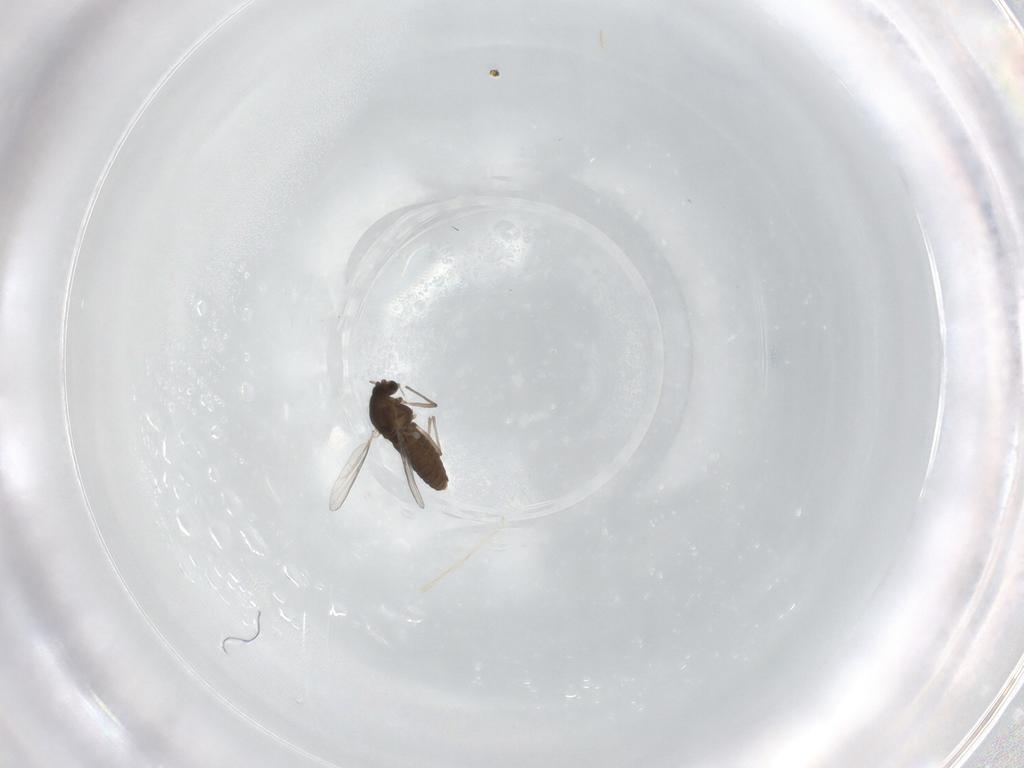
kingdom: Animalia
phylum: Arthropoda
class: Insecta
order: Diptera
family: Chironomidae
